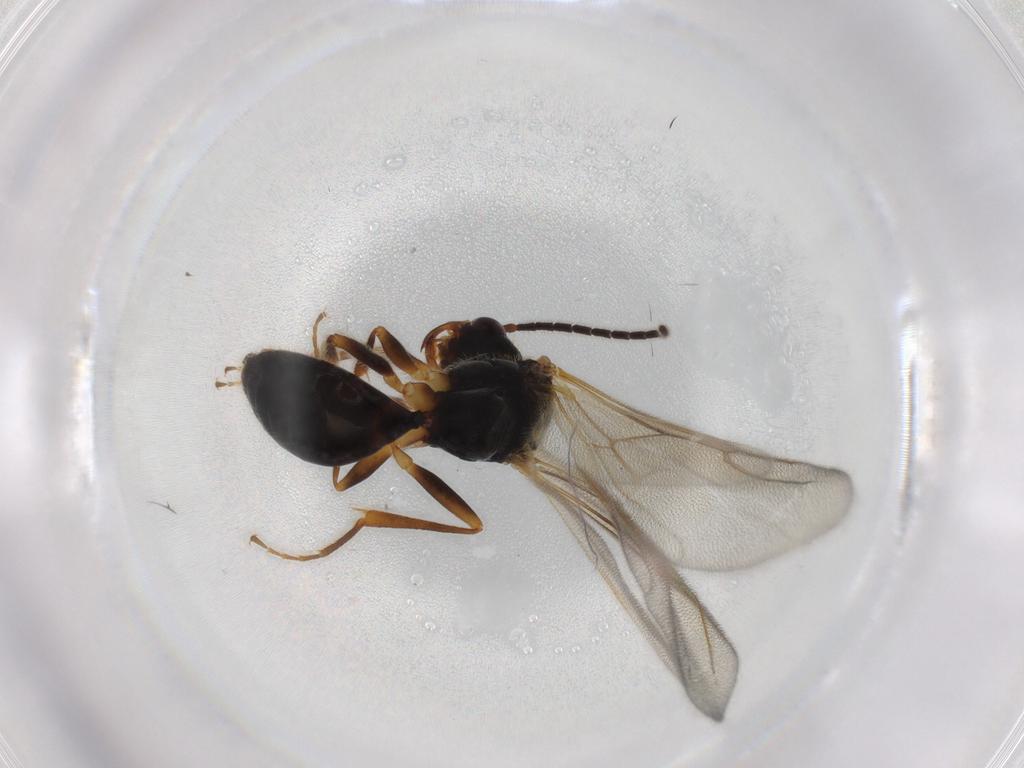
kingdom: Animalia
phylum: Arthropoda
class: Insecta
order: Hymenoptera
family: Bethylidae
